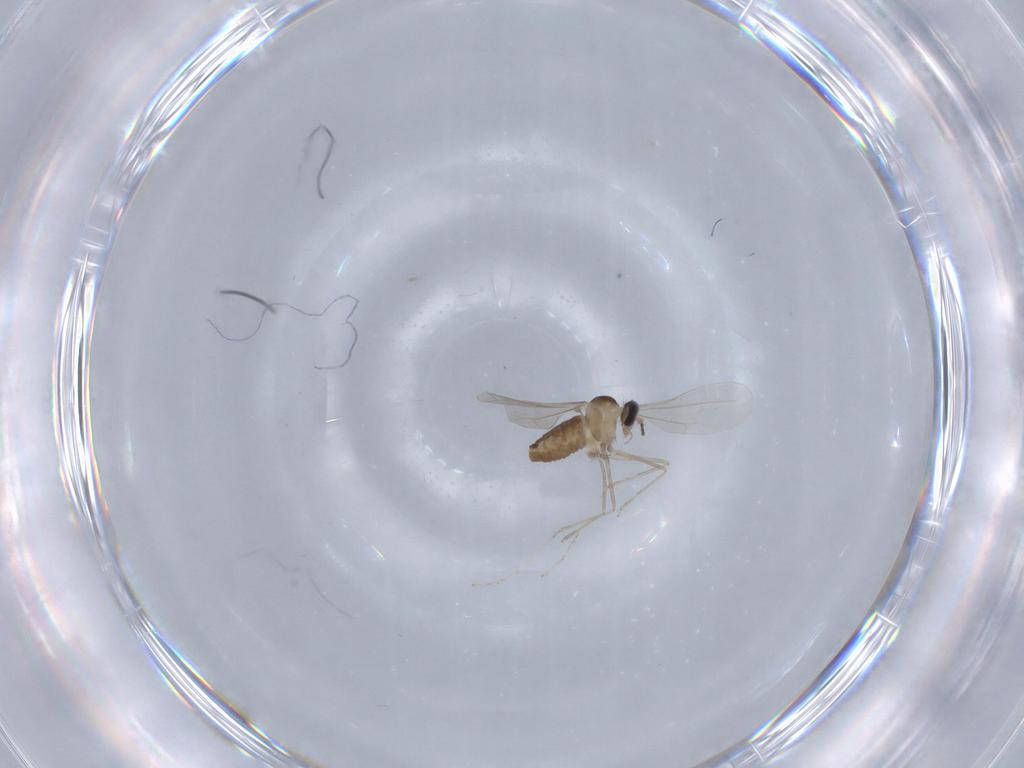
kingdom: Animalia
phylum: Arthropoda
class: Insecta
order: Diptera
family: Cecidomyiidae
